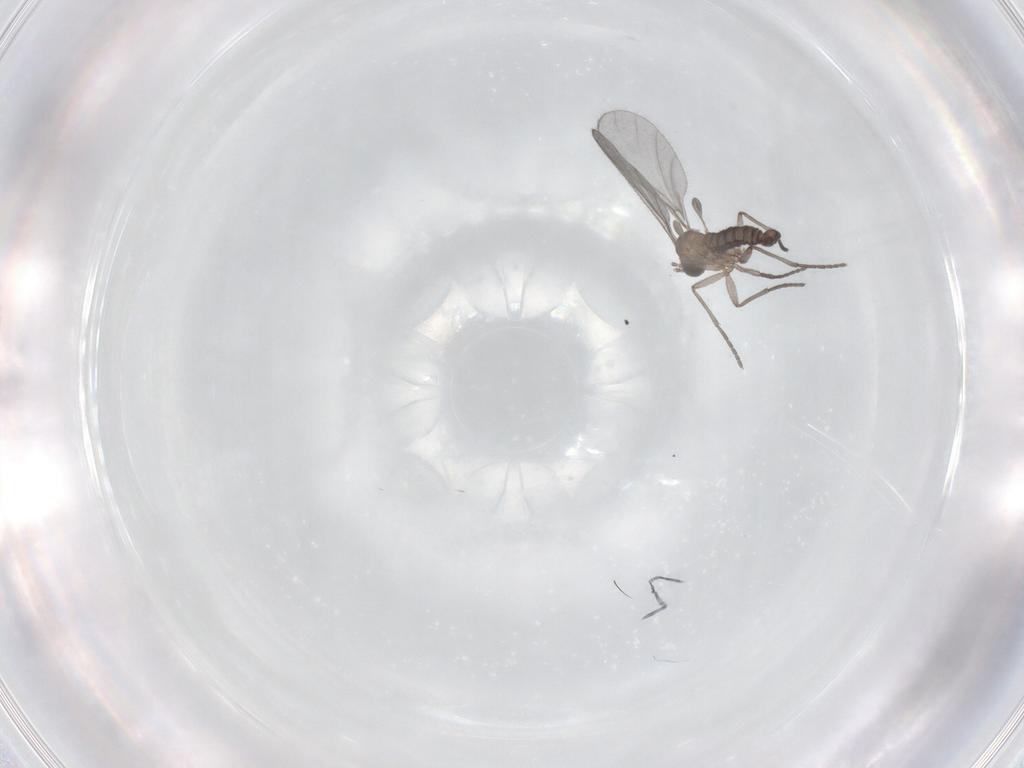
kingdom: Animalia
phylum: Arthropoda
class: Insecta
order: Diptera
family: Sciaridae
